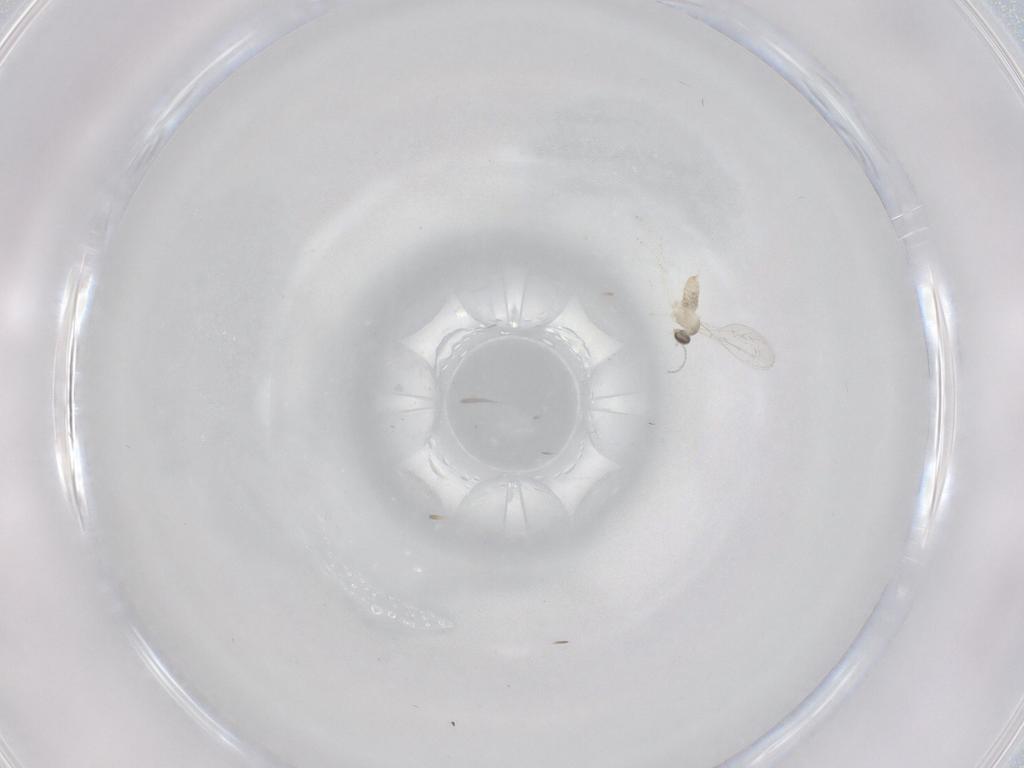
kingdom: Animalia
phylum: Arthropoda
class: Insecta
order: Diptera
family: Cecidomyiidae
